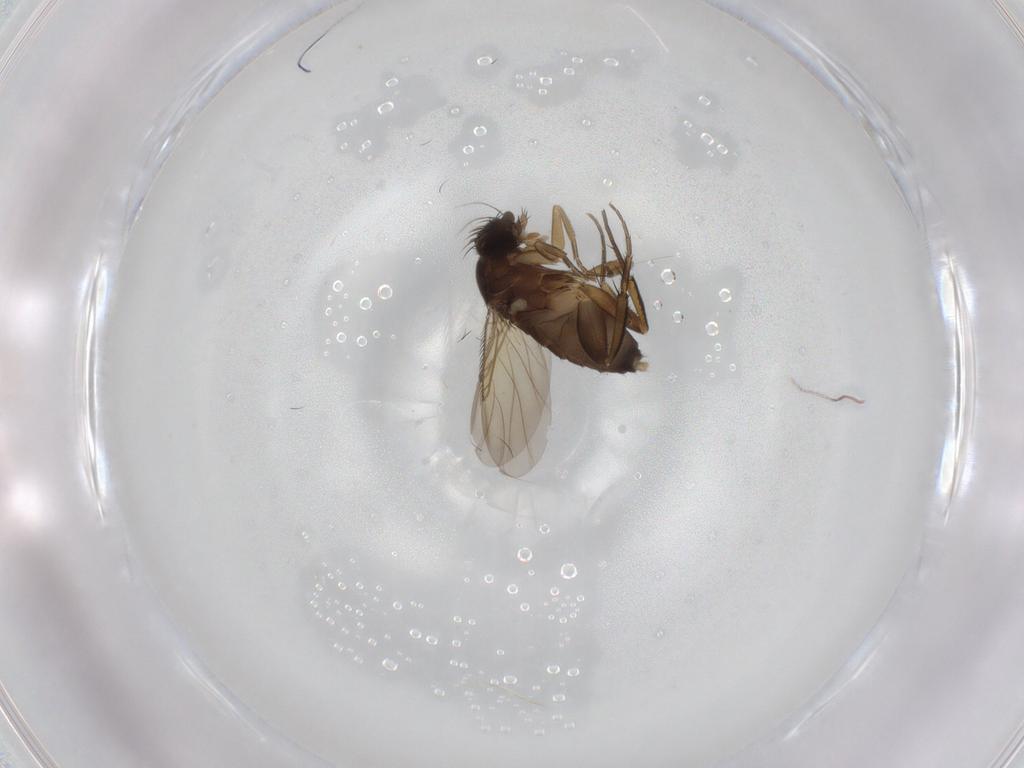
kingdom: Animalia
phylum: Arthropoda
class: Insecta
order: Diptera
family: Phoridae
